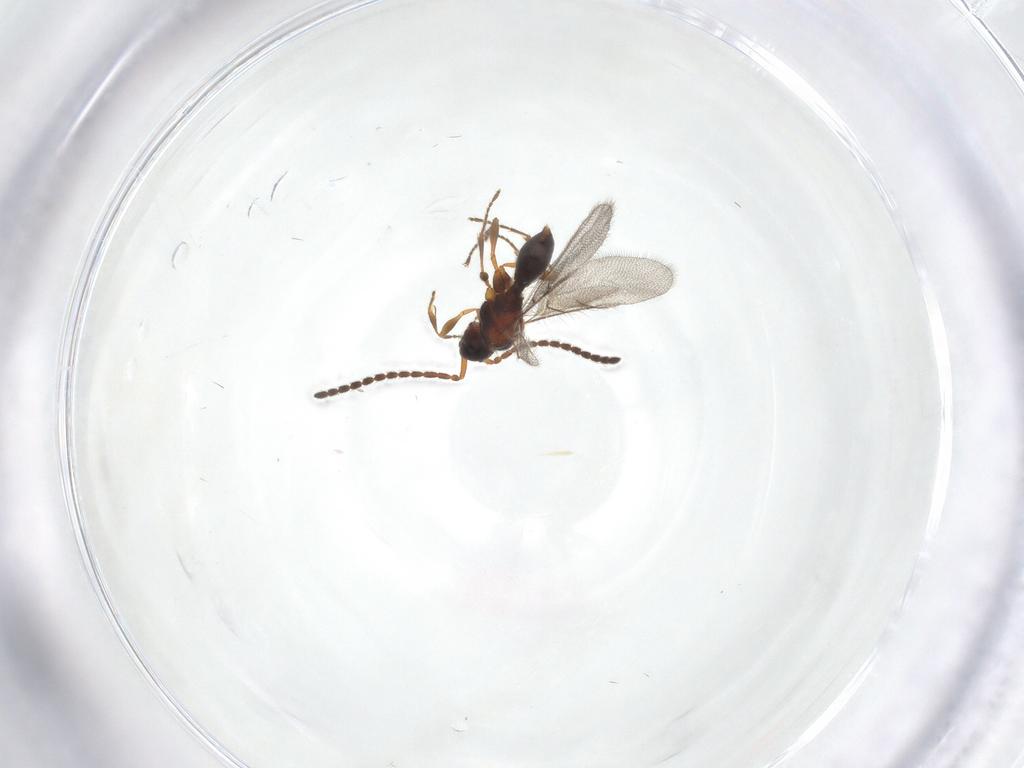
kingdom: Animalia
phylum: Arthropoda
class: Insecta
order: Hymenoptera
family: Diapriidae
